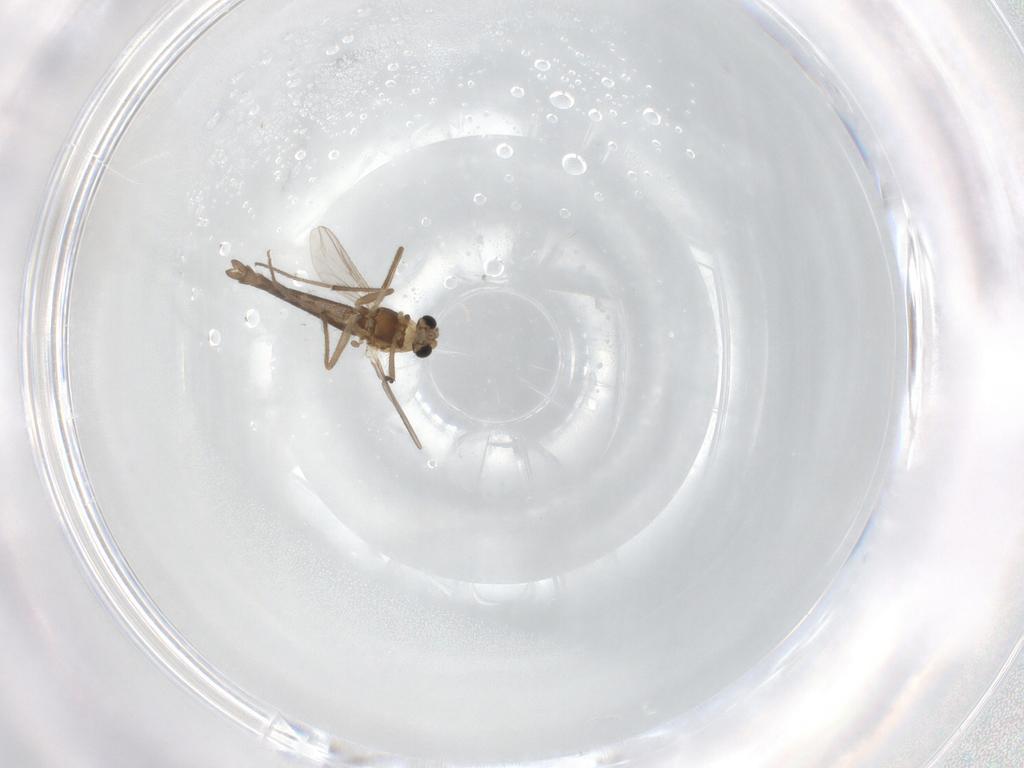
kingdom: Animalia
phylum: Arthropoda
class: Insecta
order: Diptera
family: Chironomidae
